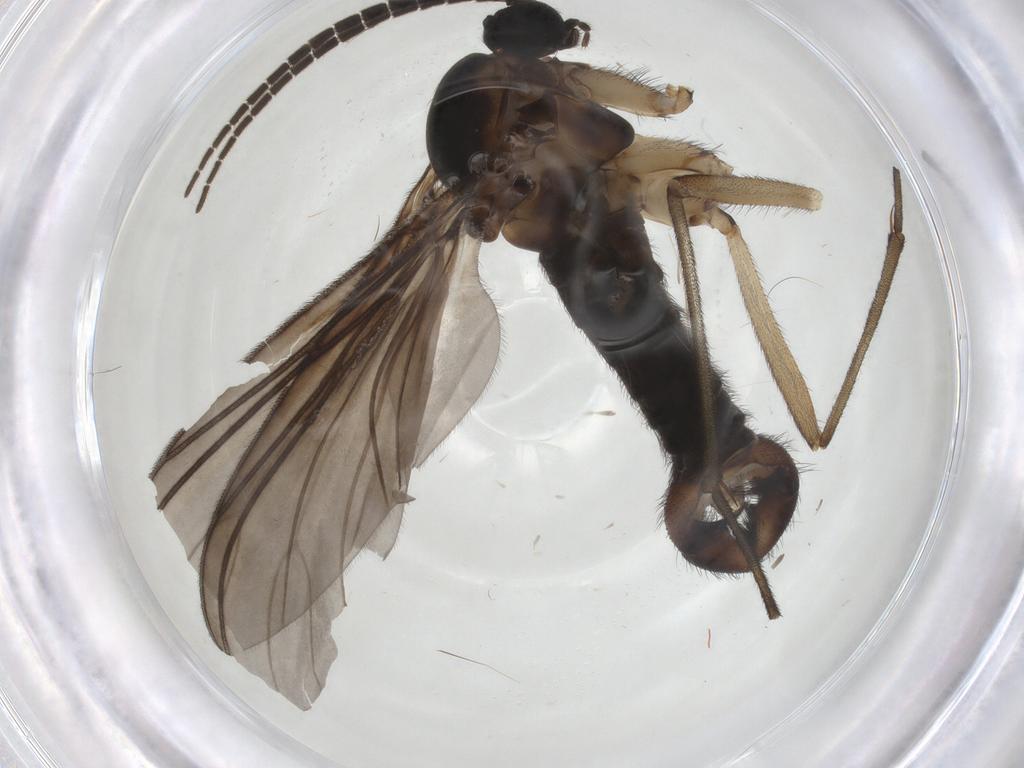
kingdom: Animalia
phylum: Arthropoda
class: Insecta
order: Diptera
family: Sciaridae
